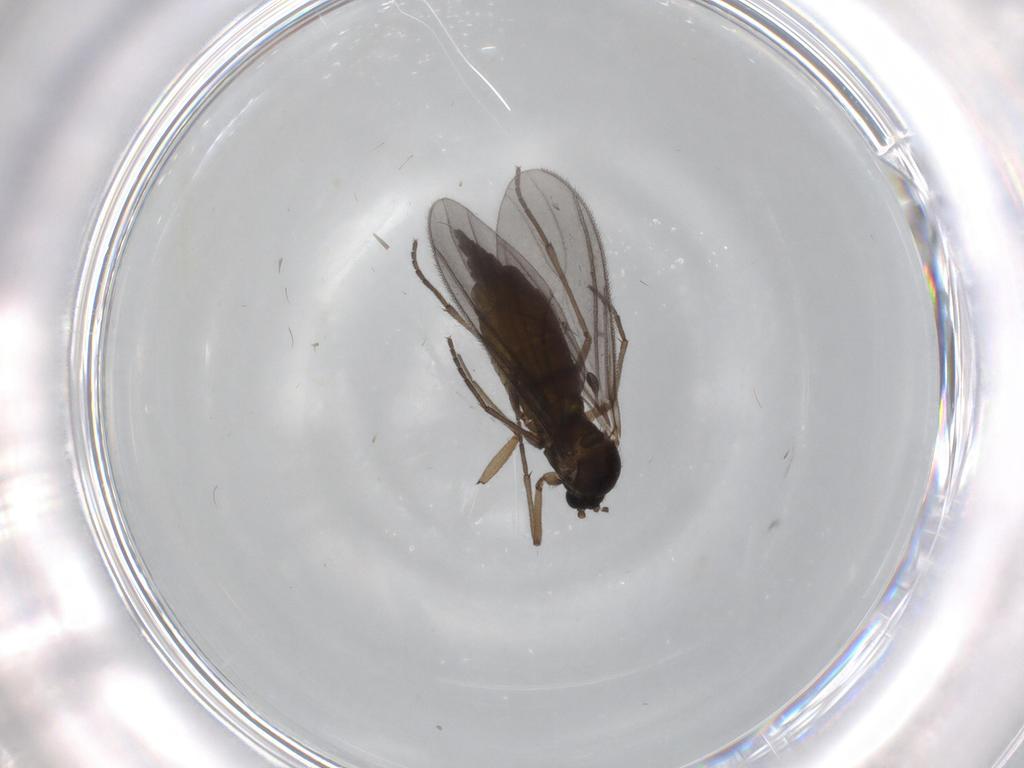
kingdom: Animalia
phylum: Arthropoda
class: Insecta
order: Diptera
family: Sciaridae
